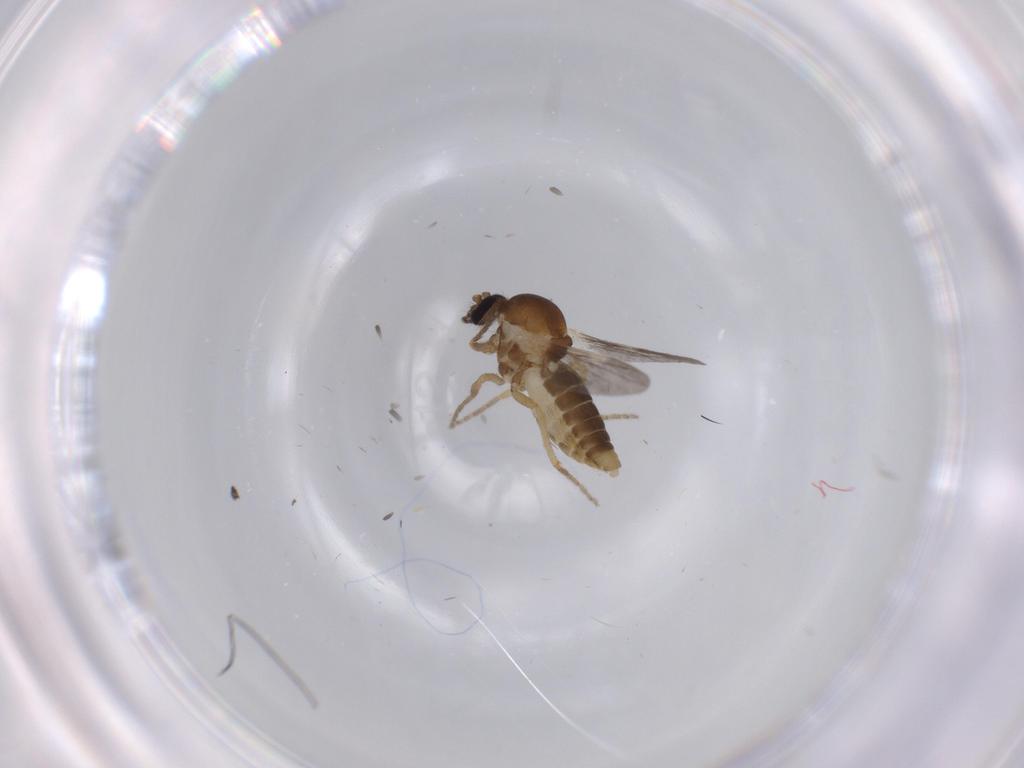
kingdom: Animalia
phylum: Arthropoda
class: Insecta
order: Diptera
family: Ceratopogonidae
